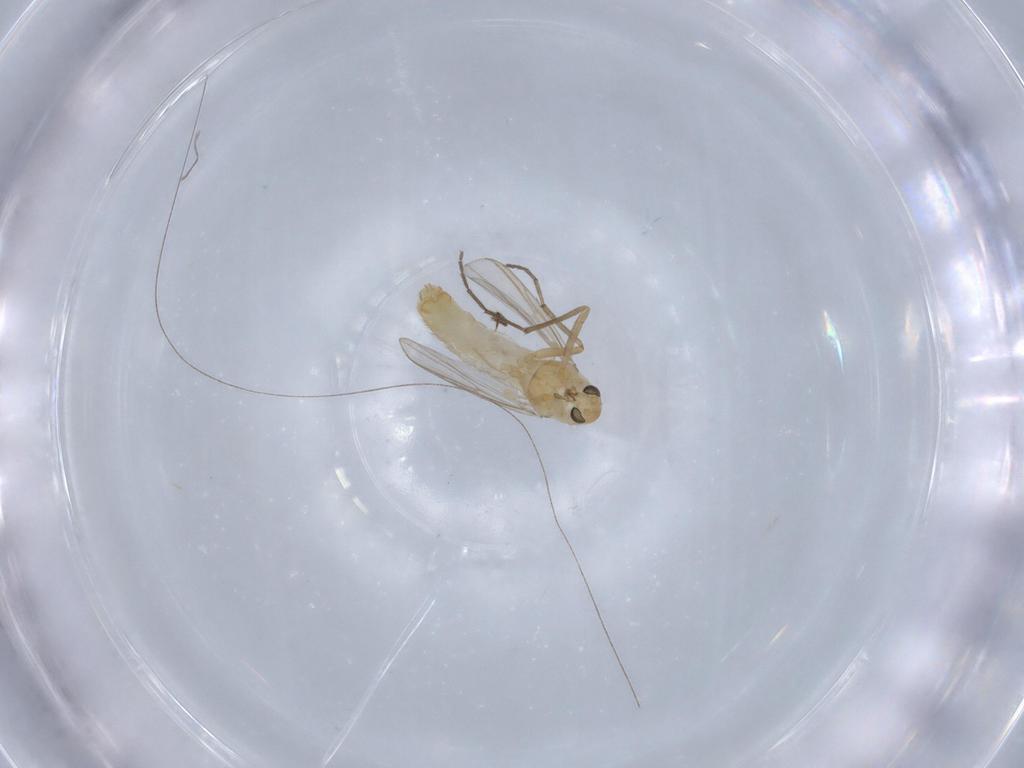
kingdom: Animalia
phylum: Arthropoda
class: Insecta
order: Diptera
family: Chironomidae
